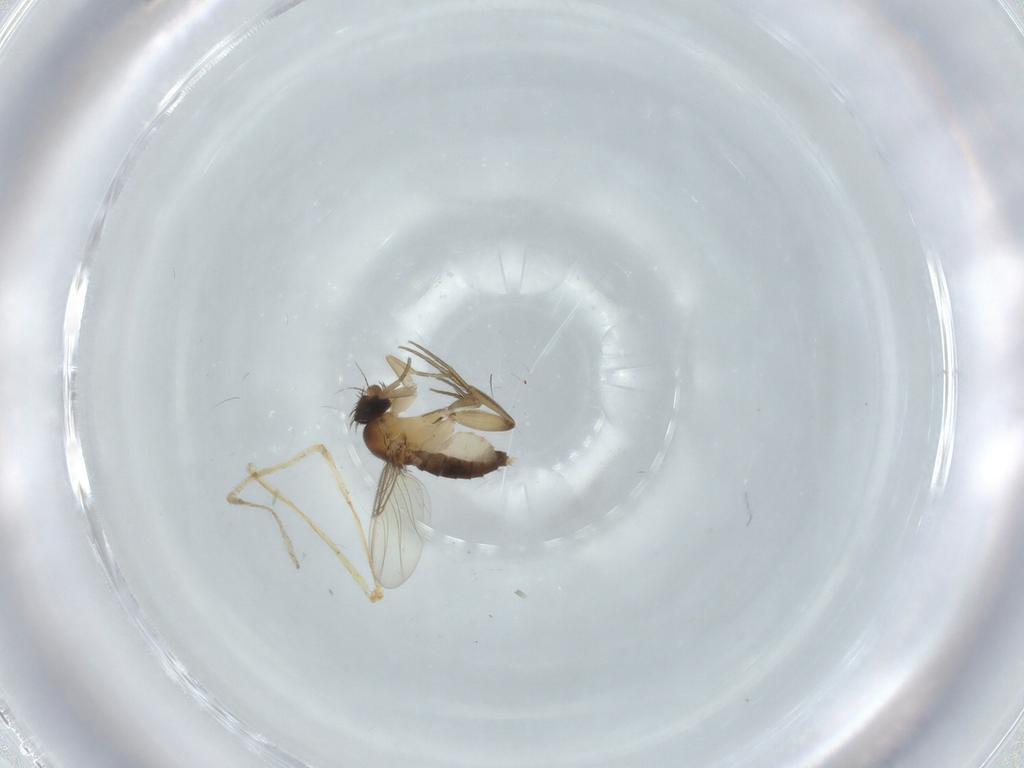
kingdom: Animalia
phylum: Arthropoda
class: Insecta
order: Diptera
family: Phoridae
